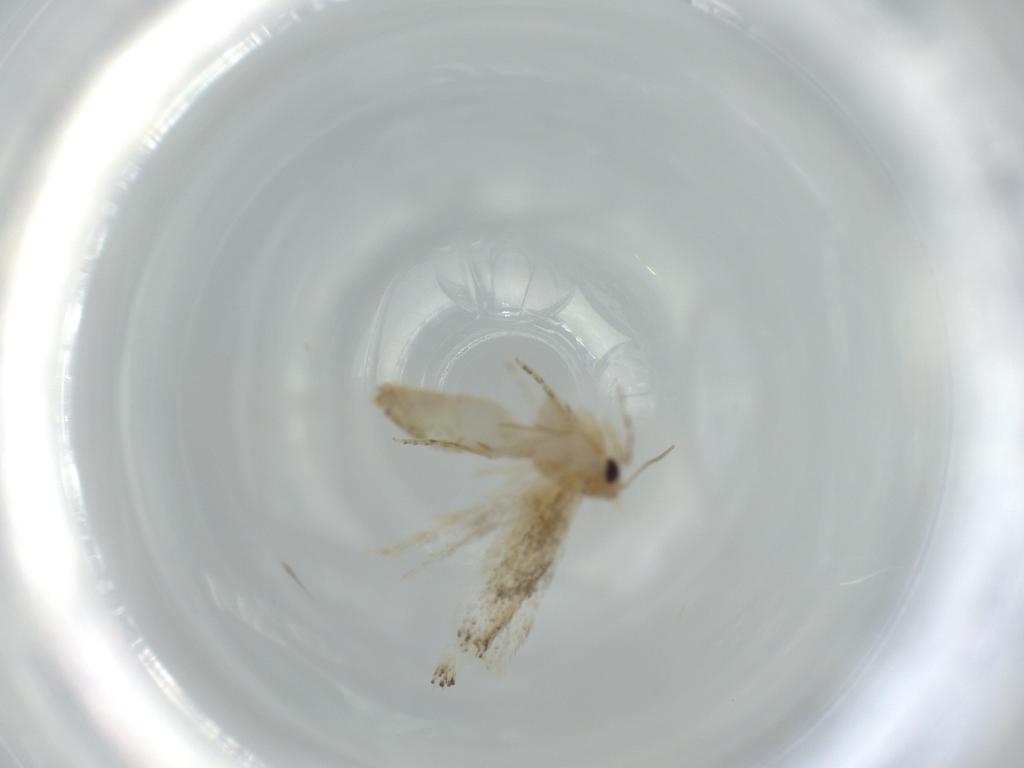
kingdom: Animalia
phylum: Arthropoda
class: Insecta
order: Lepidoptera
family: Bucculatricidae
